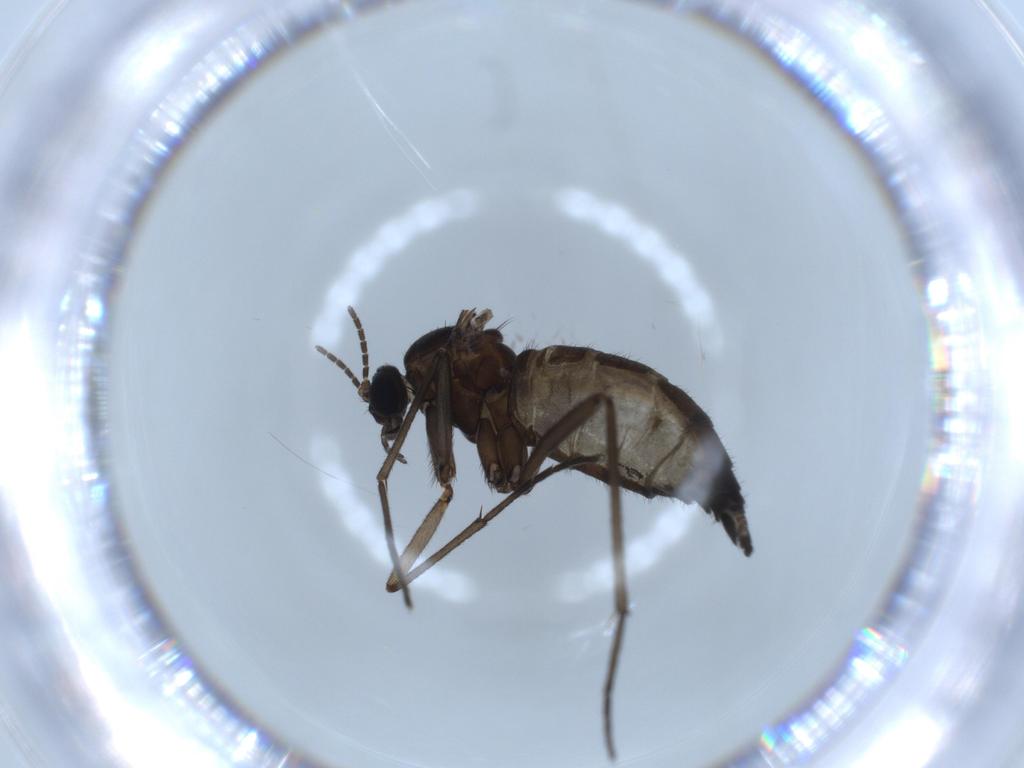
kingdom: Animalia
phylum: Arthropoda
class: Insecta
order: Diptera
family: Sciaridae
